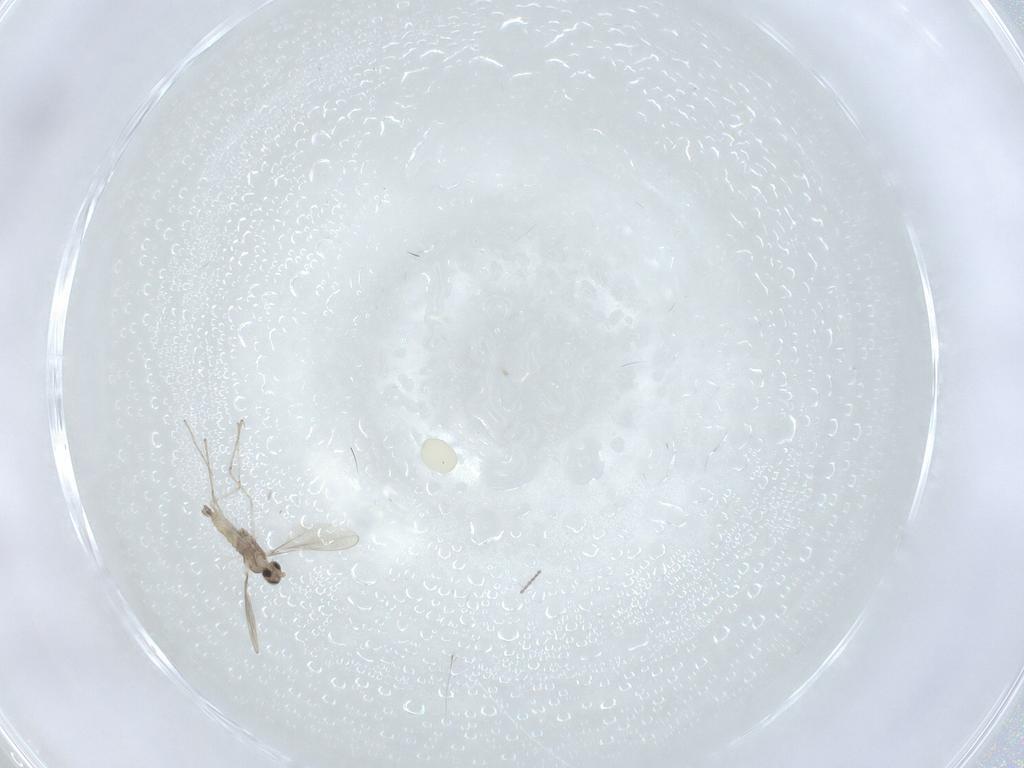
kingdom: Animalia
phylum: Arthropoda
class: Insecta
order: Diptera
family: Cecidomyiidae
